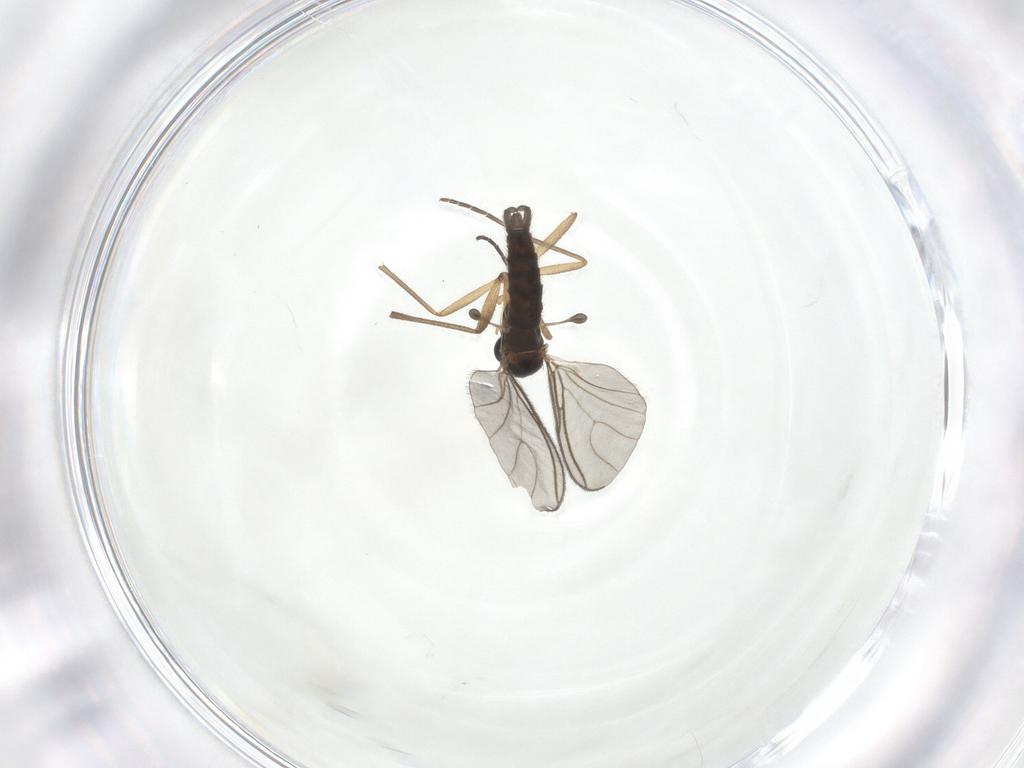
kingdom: Animalia
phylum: Arthropoda
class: Insecta
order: Diptera
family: Sciaridae
